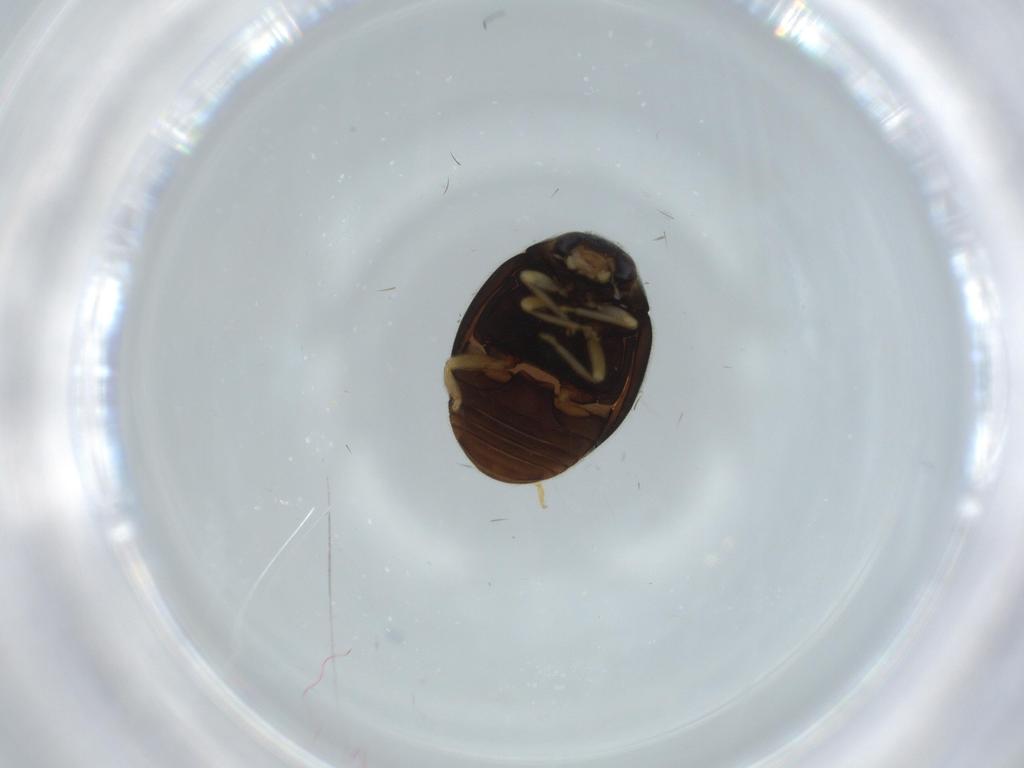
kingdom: Animalia
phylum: Arthropoda
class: Insecta
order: Coleoptera
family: Coccinellidae
